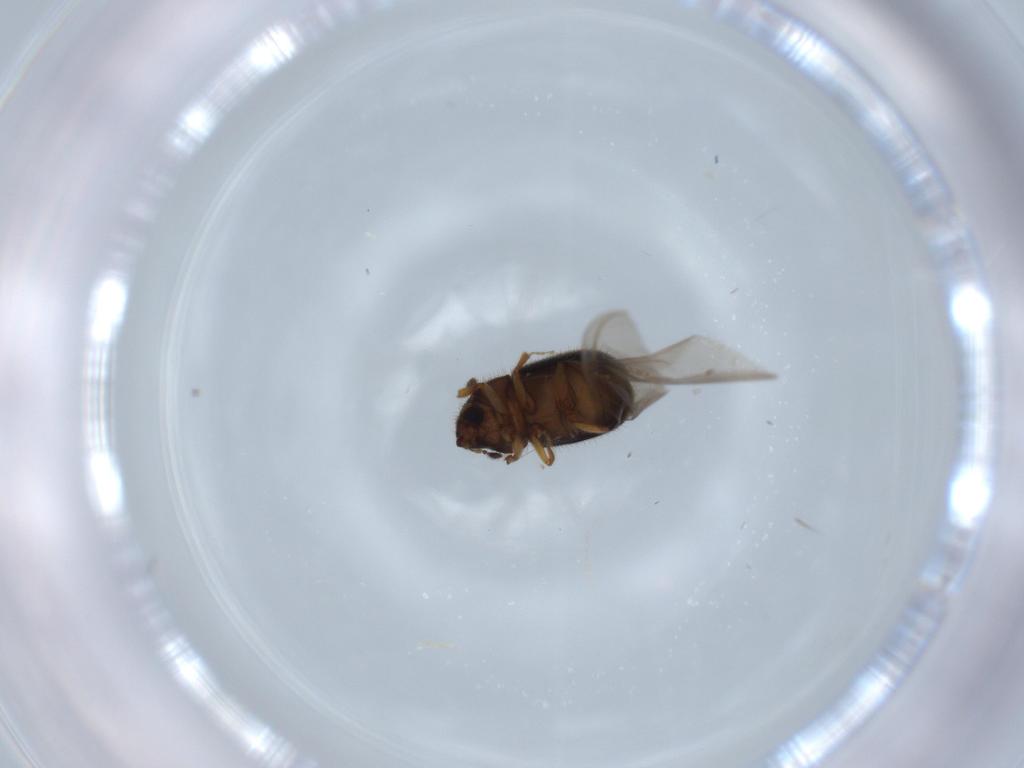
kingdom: Animalia
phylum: Arthropoda
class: Insecta
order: Coleoptera
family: Curculionidae
